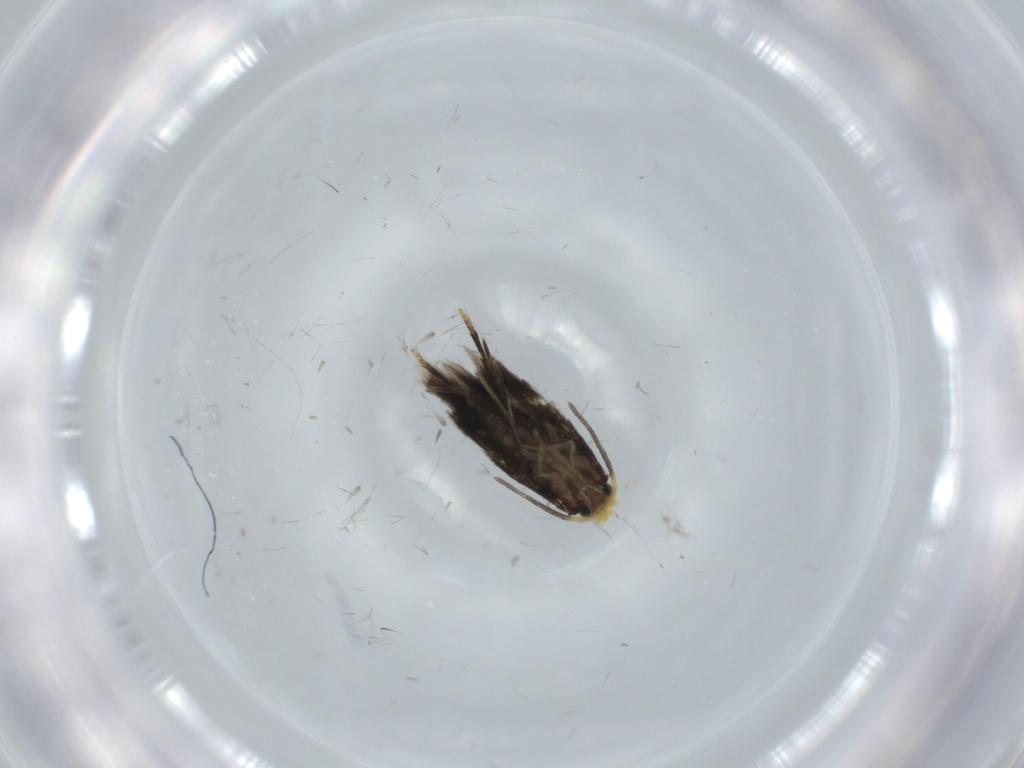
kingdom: Animalia
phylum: Arthropoda
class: Insecta
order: Lepidoptera
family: Nepticulidae
